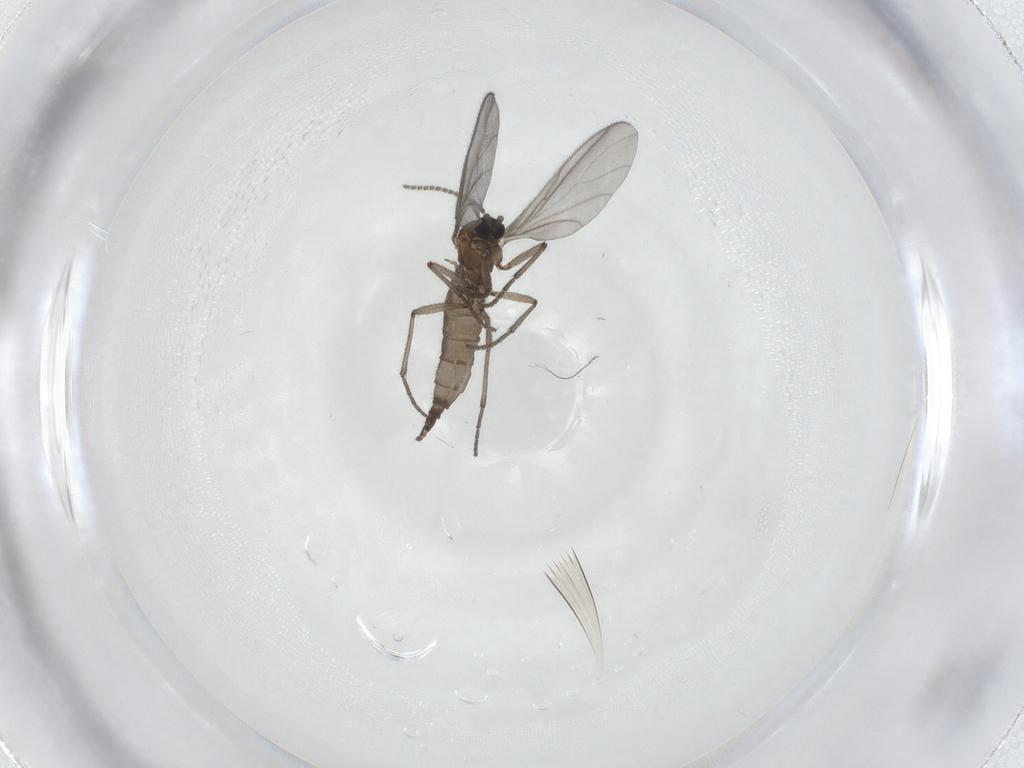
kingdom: Animalia
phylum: Arthropoda
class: Insecta
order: Diptera
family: Sciaridae
